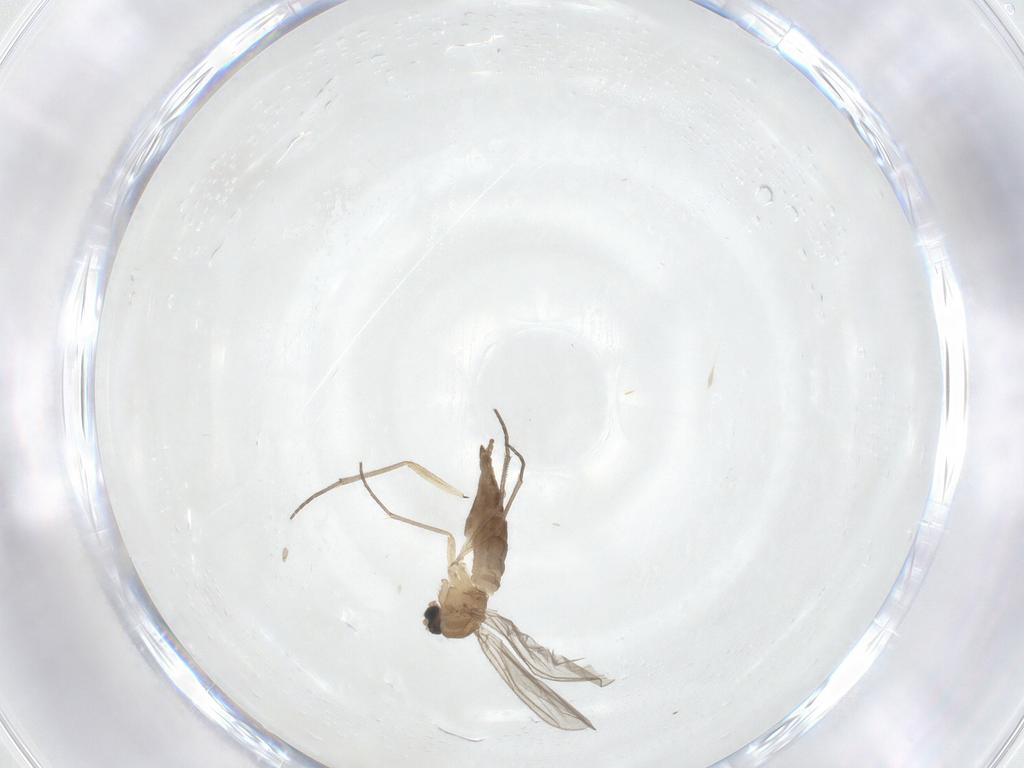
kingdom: Animalia
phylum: Arthropoda
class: Insecta
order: Diptera
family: Sciaridae
